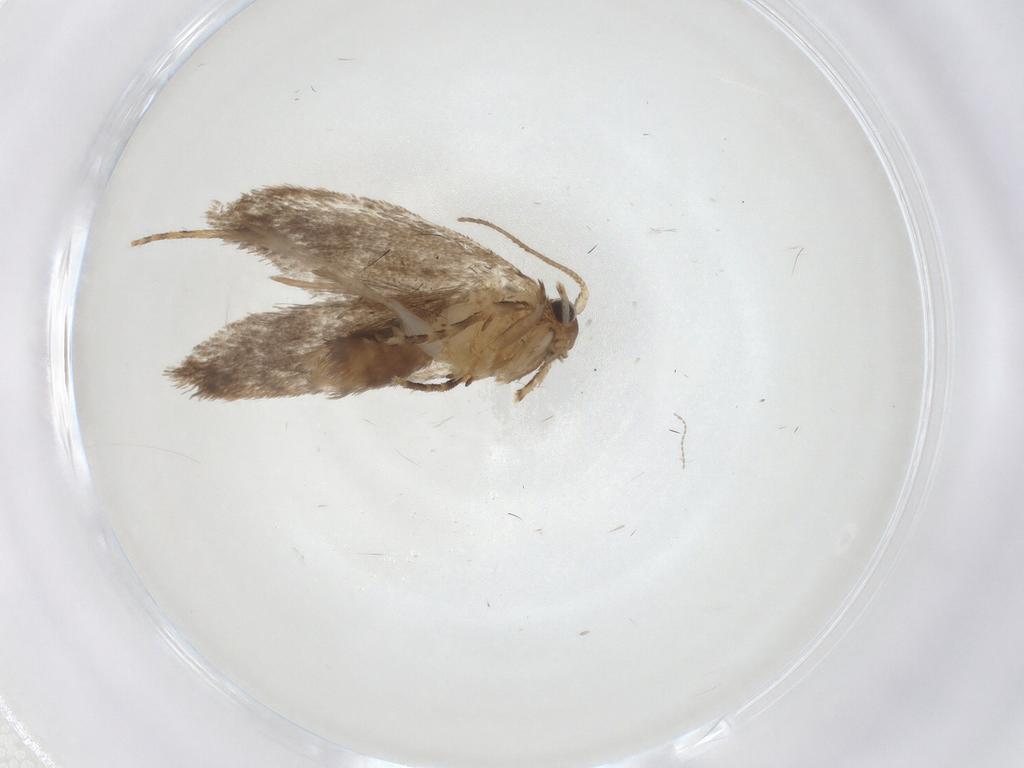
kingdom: Animalia
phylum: Arthropoda
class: Insecta
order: Lepidoptera
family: Dryadaulidae
